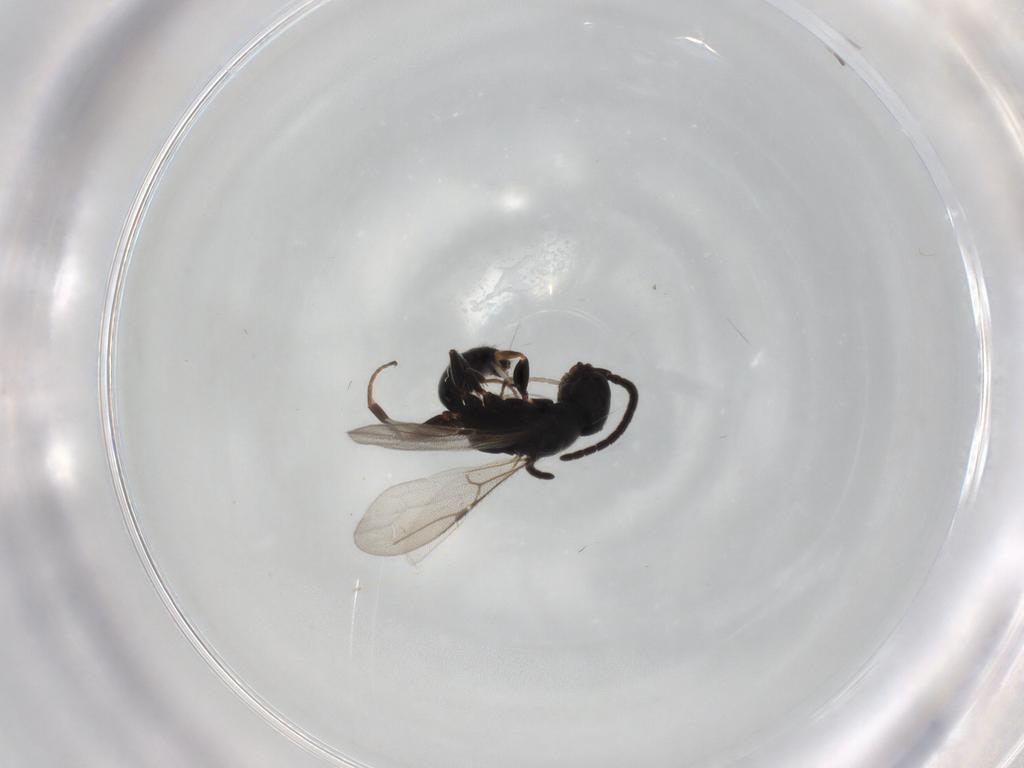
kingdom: Animalia
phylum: Arthropoda
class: Insecta
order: Hymenoptera
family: Bethylidae
